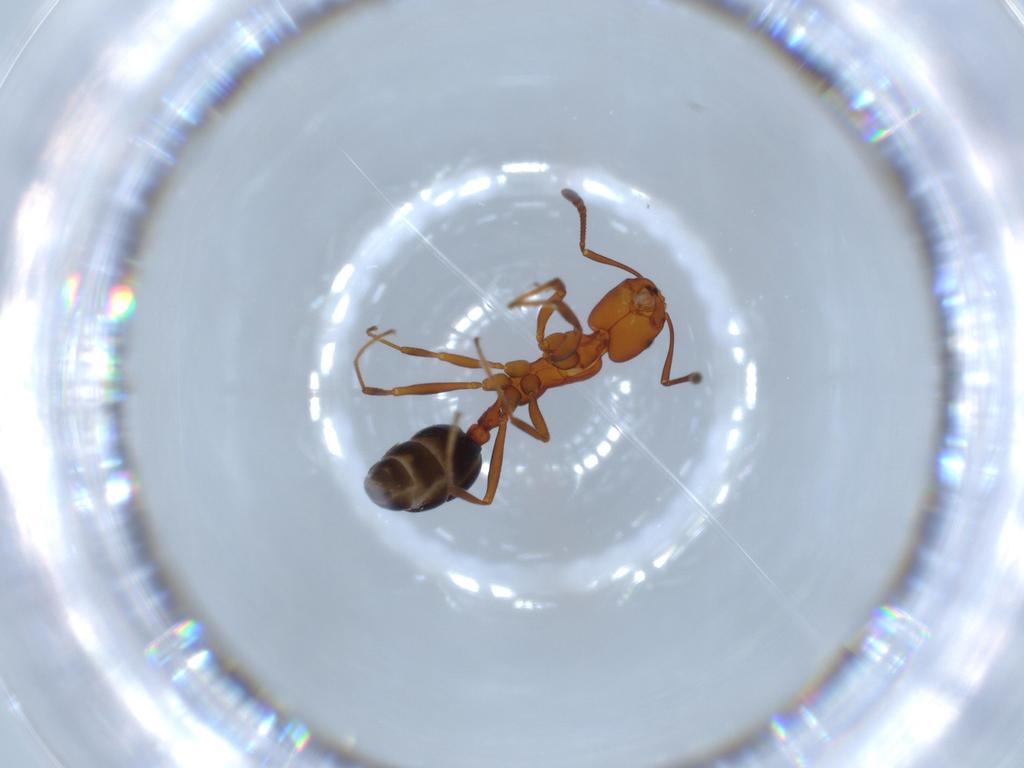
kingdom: Animalia
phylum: Arthropoda
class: Insecta
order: Hymenoptera
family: Formicidae
